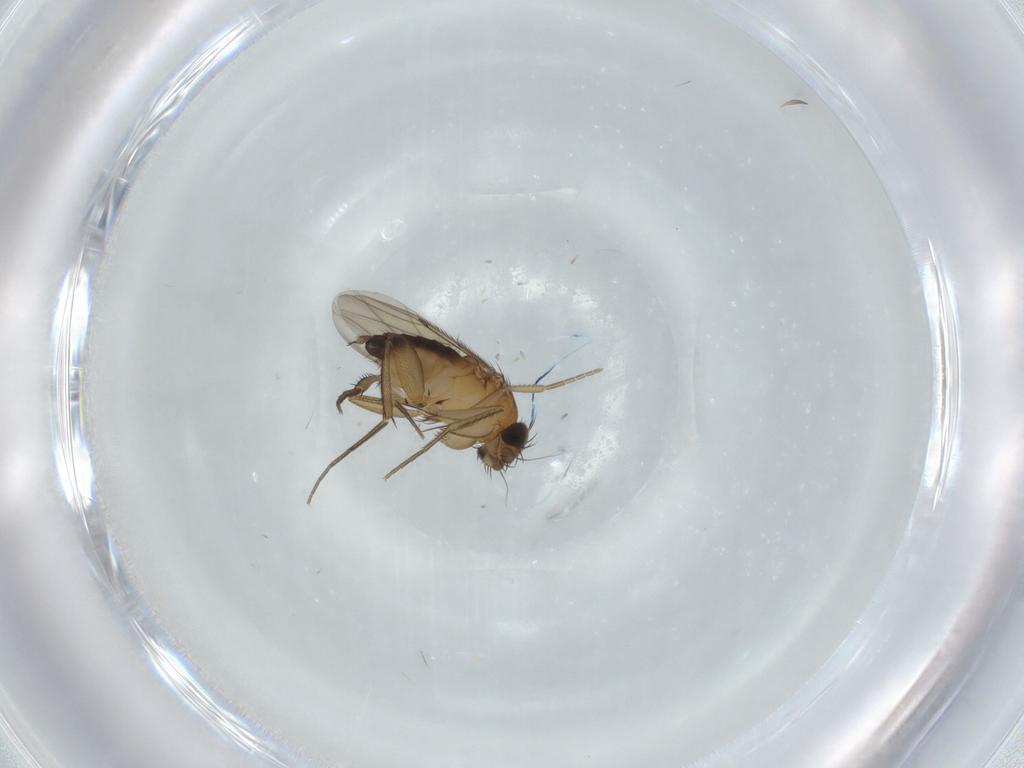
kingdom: Animalia
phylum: Arthropoda
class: Insecta
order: Diptera
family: Phoridae
